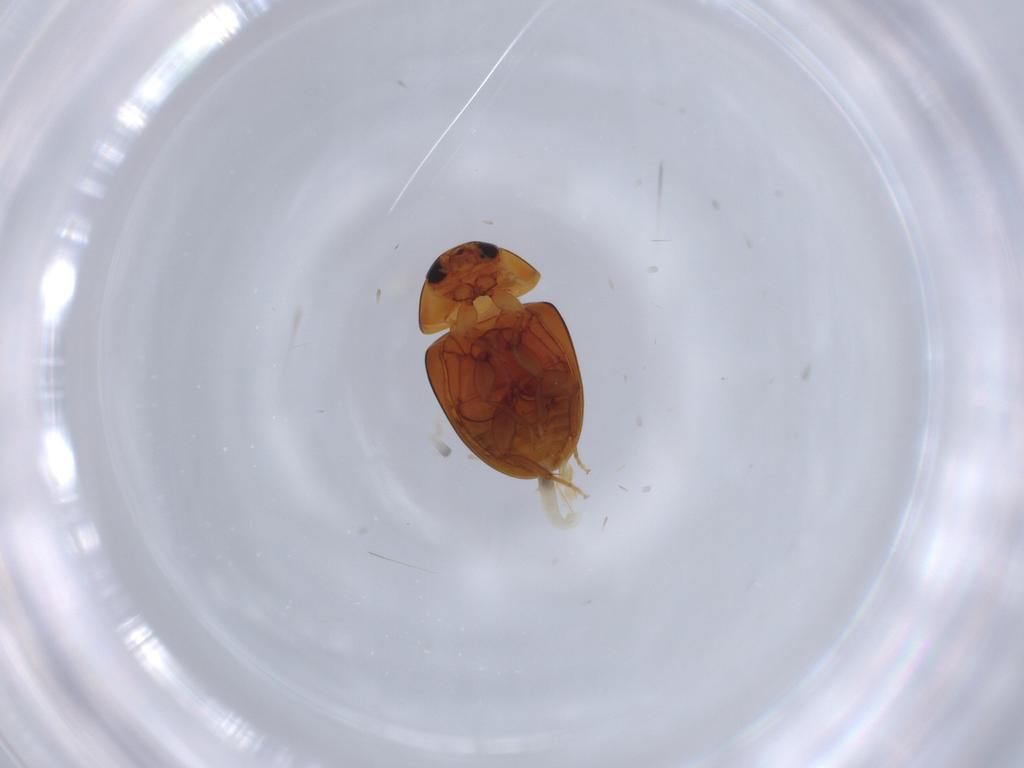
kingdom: Animalia
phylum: Arthropoda
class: Insecta
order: Coleoptera
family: Phalacridae
